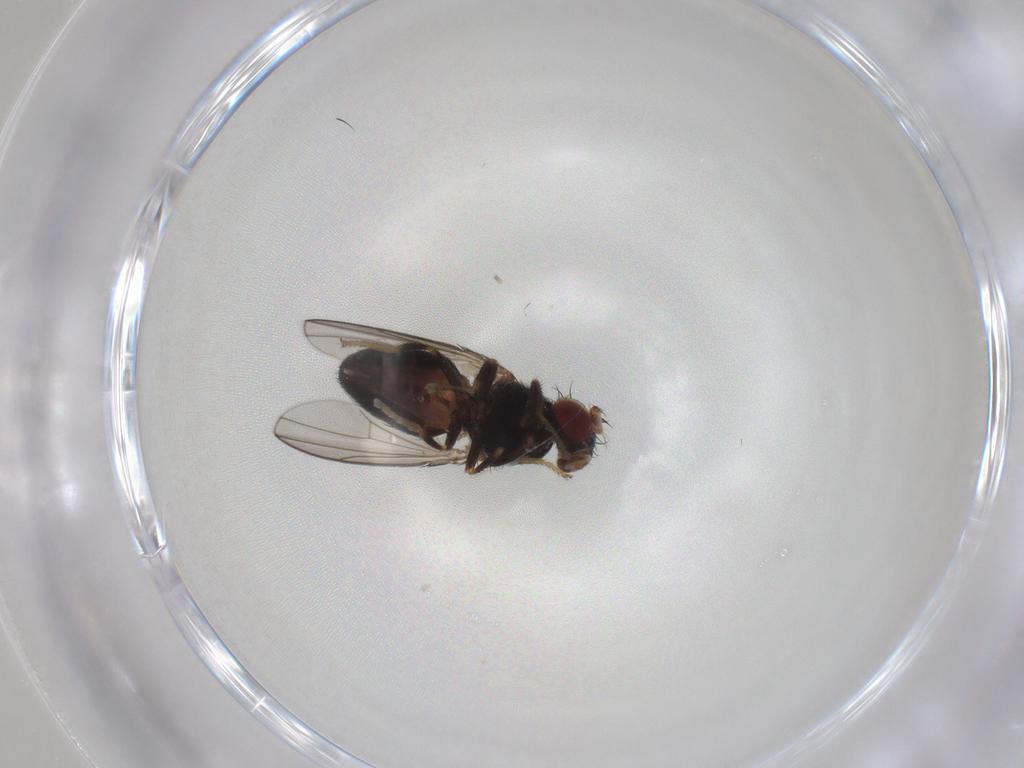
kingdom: Animalia
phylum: Arthropoda
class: Insecta
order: Diptera
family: Agromyzidae
